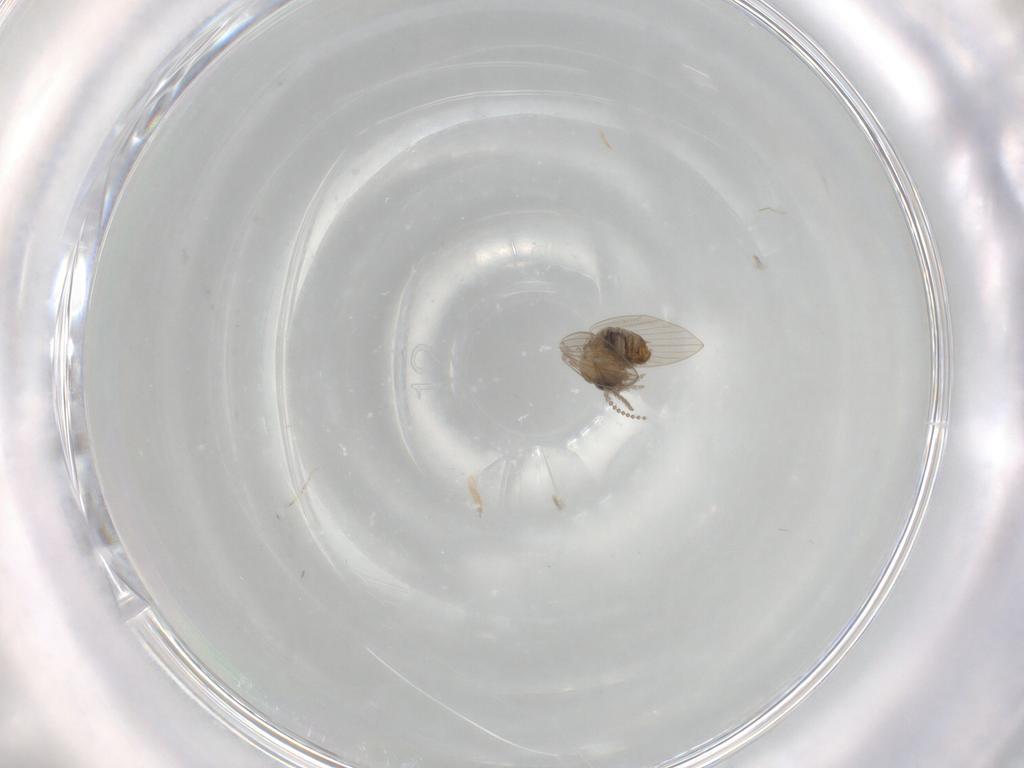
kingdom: Animalia
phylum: Arthropoda
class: Insecta
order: Diptera
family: Psychodidae
